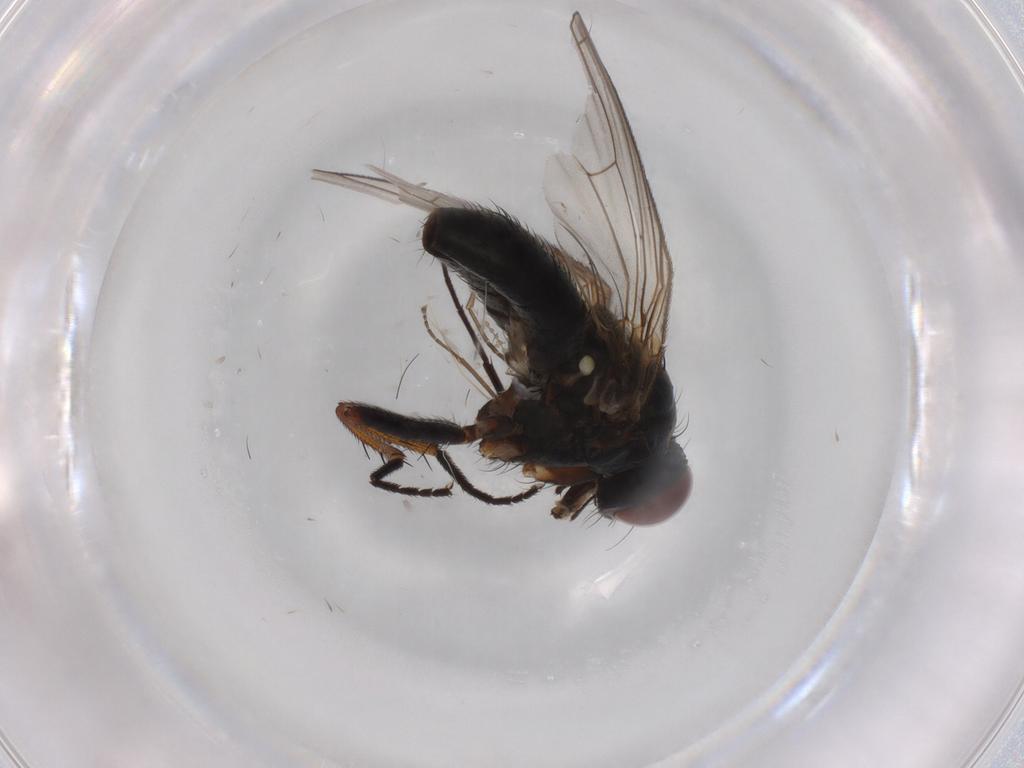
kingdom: Animalia
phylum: Arthropoda
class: Insecta
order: Diptera
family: Muscidae
